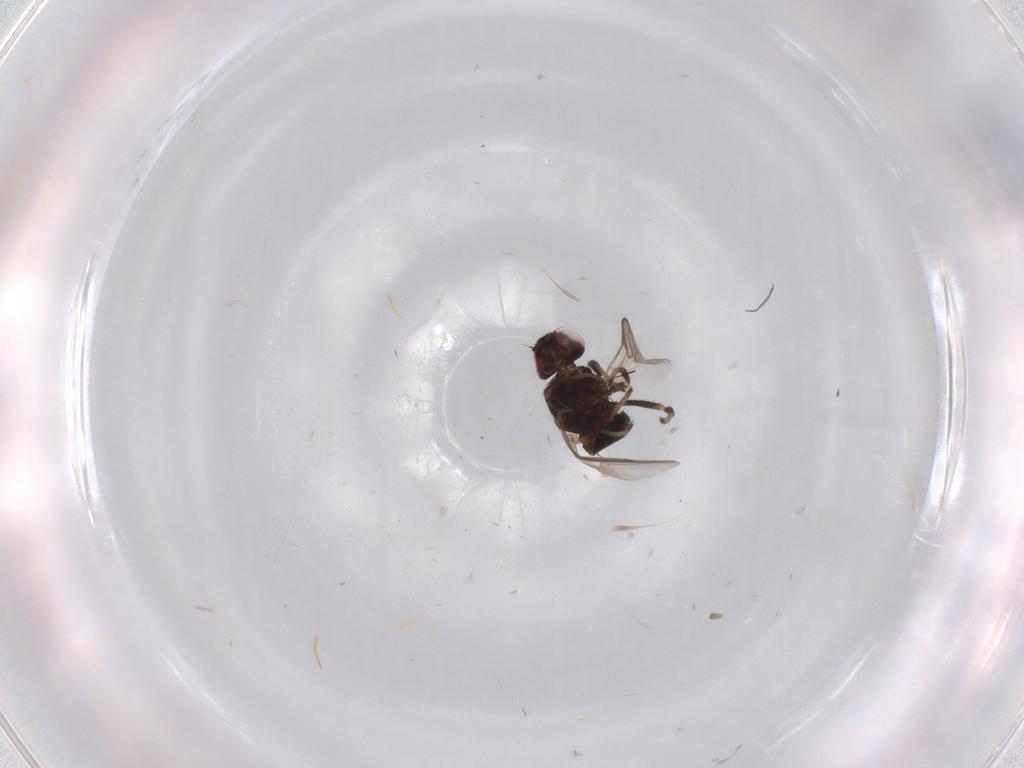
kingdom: Animalia
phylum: Arthropoda
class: Insecta
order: Diptera
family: Chloropidae
